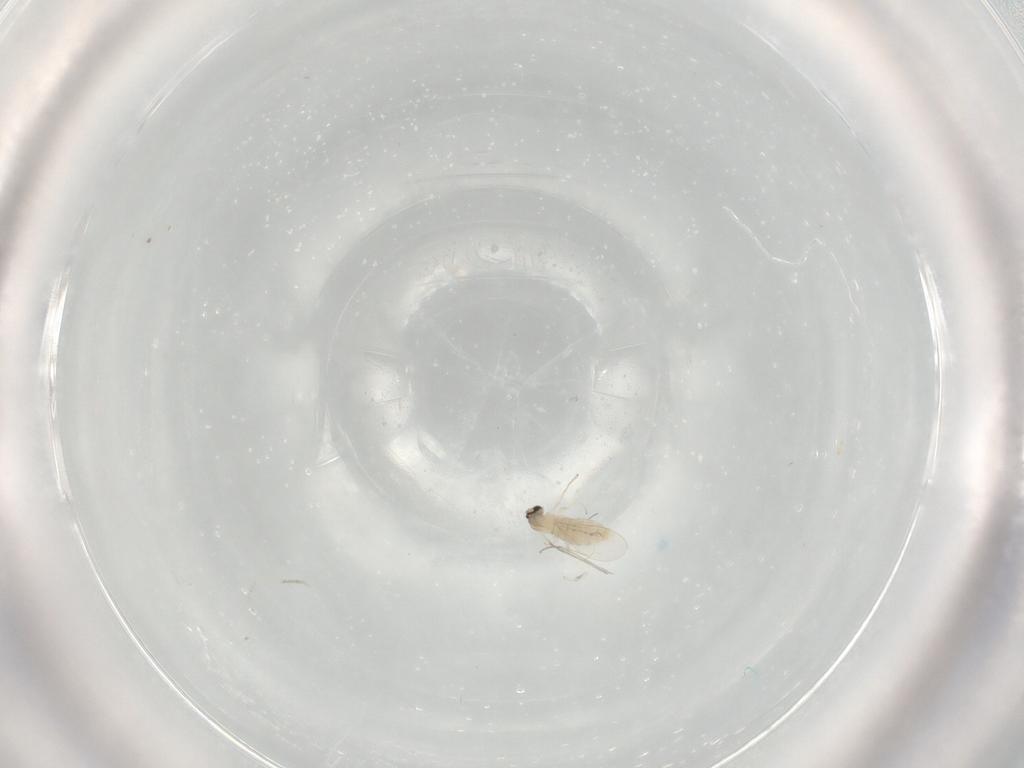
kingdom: Animalia
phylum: Arthropoda
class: Insecta
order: Diptera
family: Cecidomyiidae
